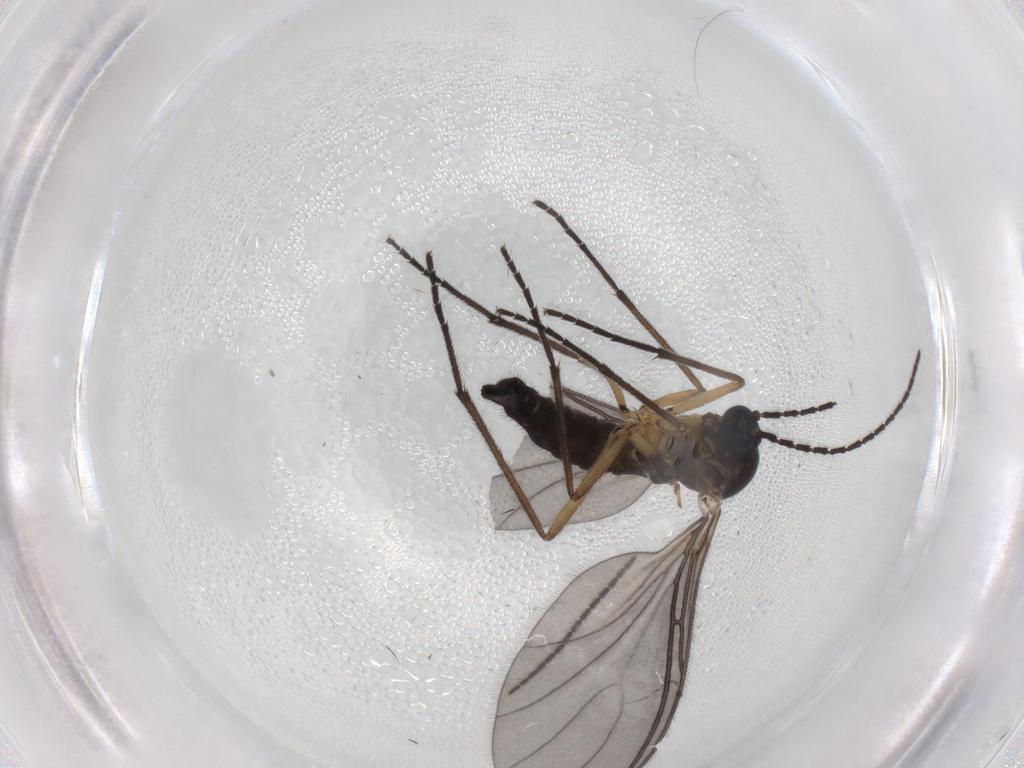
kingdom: Animalia
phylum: Arthropoda
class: Insecta
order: Diptera
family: Sciaridae
